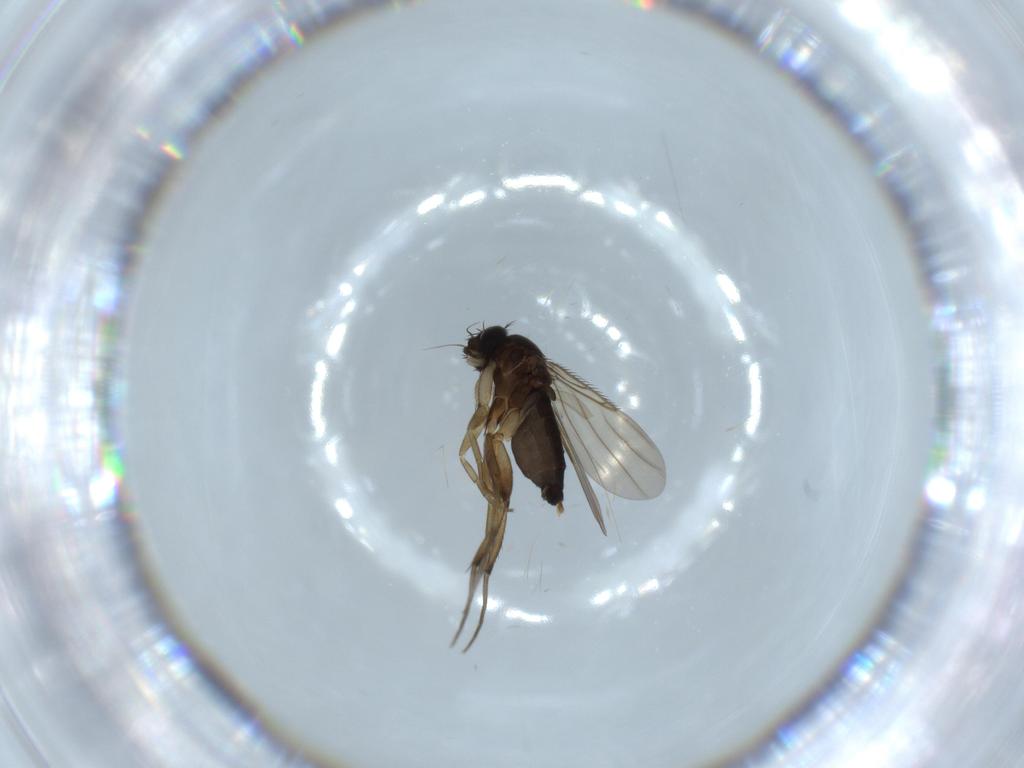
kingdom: Animalia
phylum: Arthropoda
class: Insecta
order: Diptera
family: Phoridae
